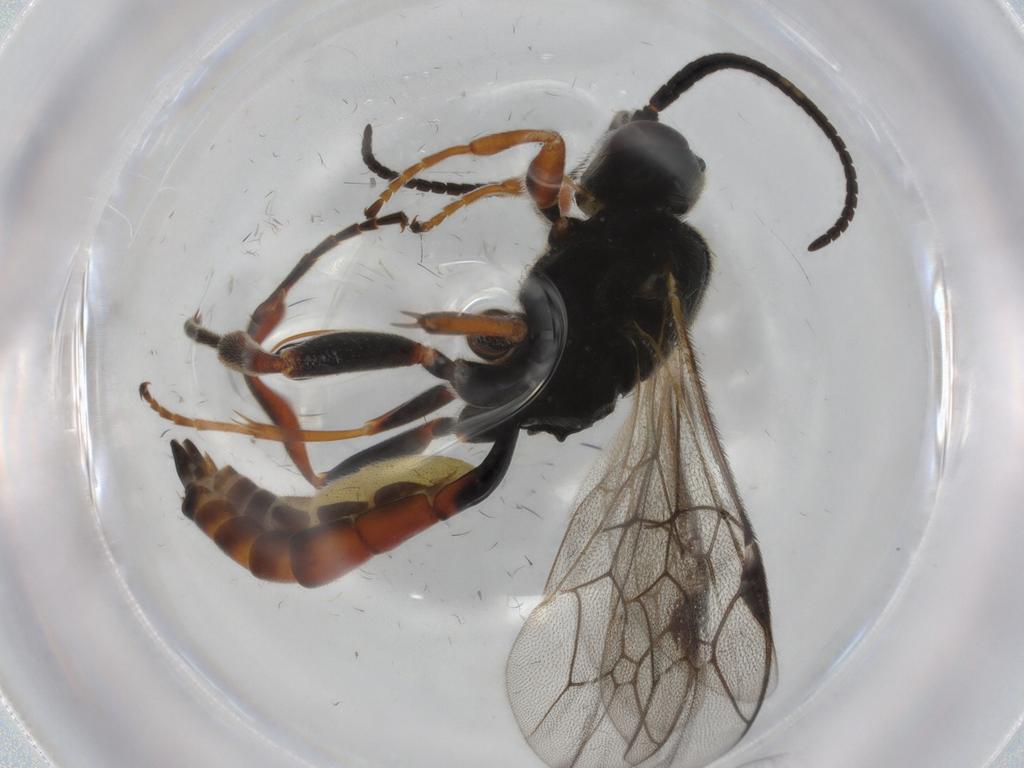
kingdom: Animalia
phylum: Arthropoda
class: Insecta
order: Hymenoptera
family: Ichneumonidae
